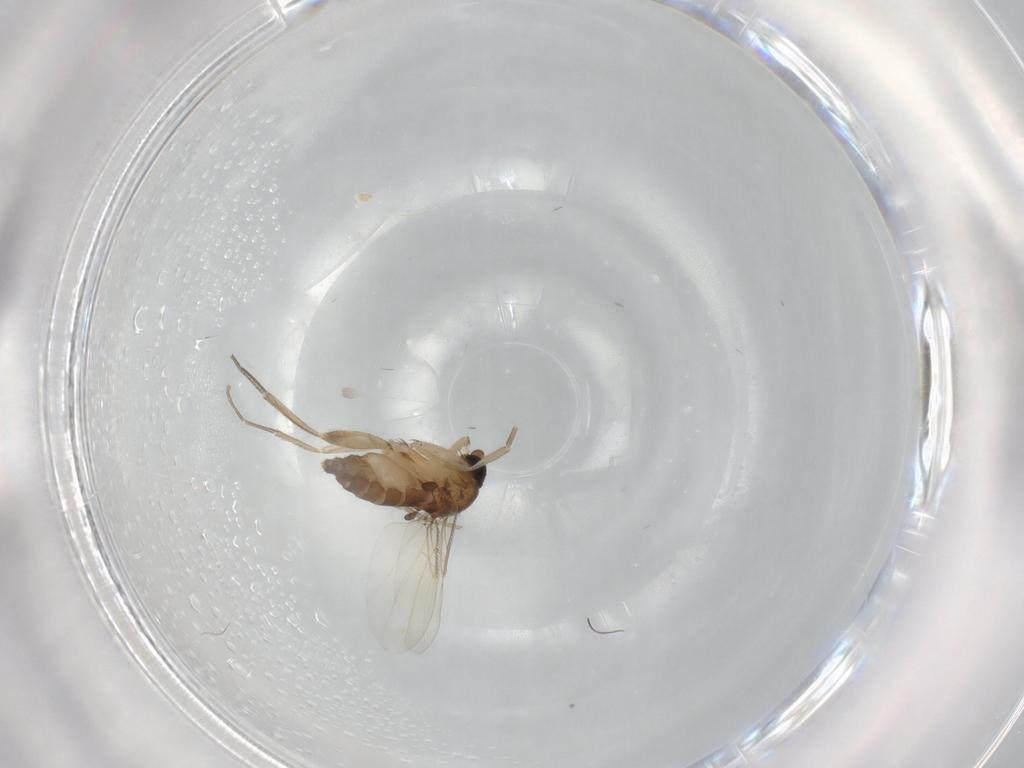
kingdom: Animalia
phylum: Arthropoda
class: Insecta
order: Diptera
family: Phoridae
